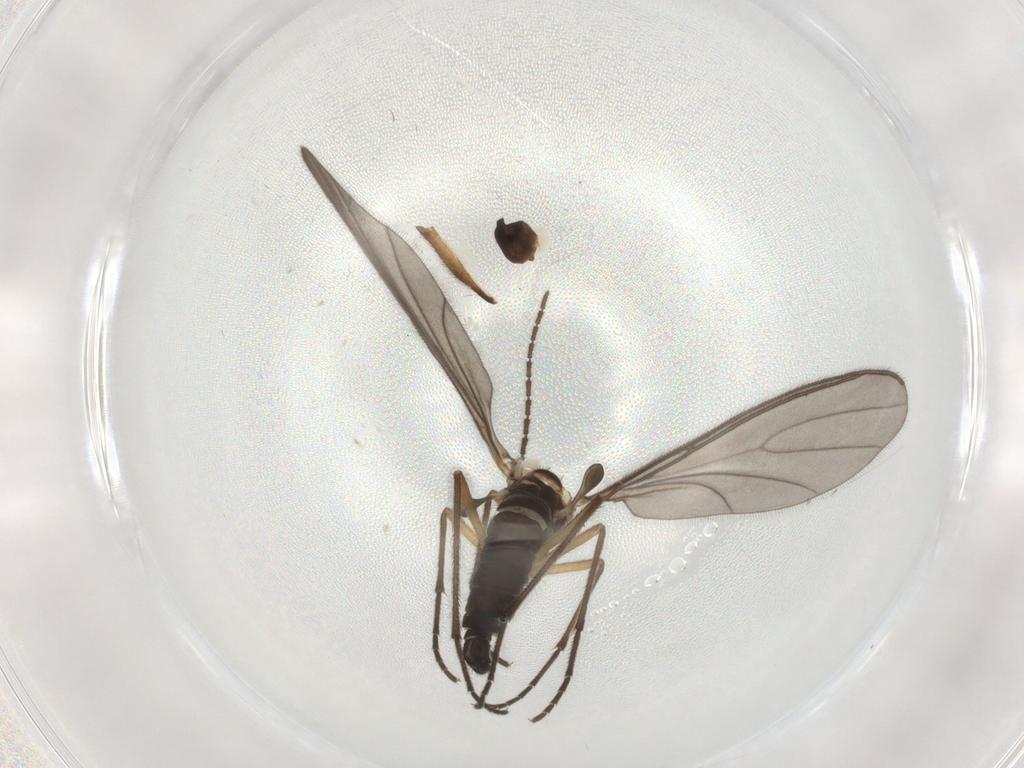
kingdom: Animalia
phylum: Arthropoda
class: Insecta
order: Diptera
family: Sciaridae
